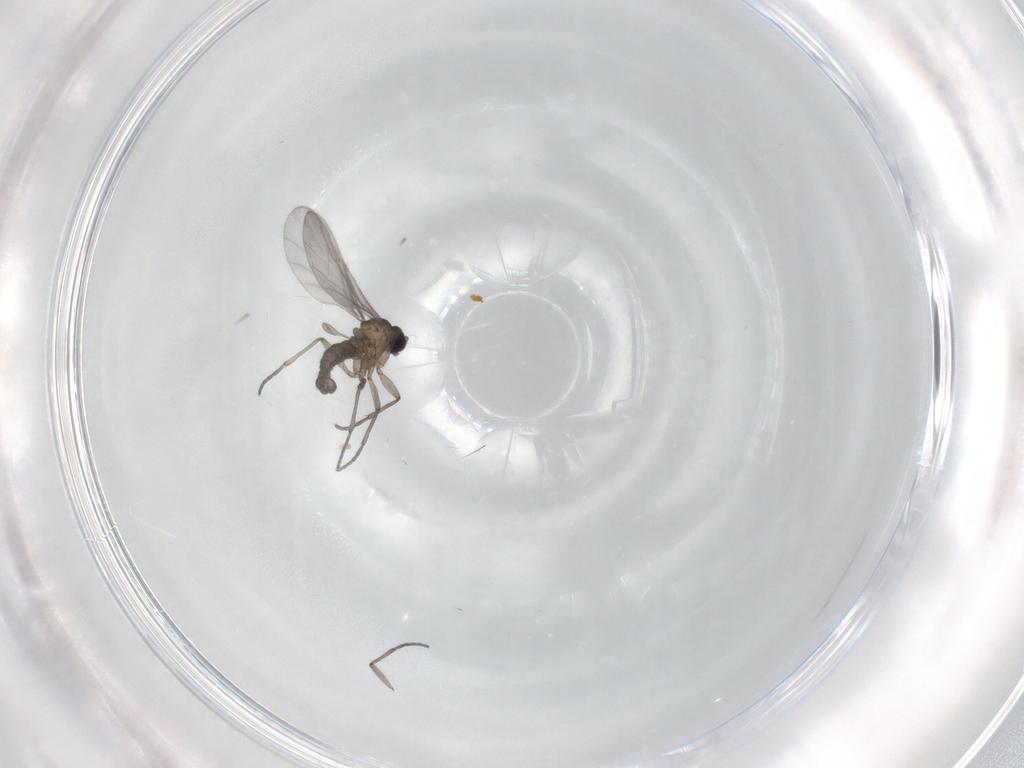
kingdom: Animalia
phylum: Arthropoda
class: Insecta
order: Diptera
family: Sciaridae
